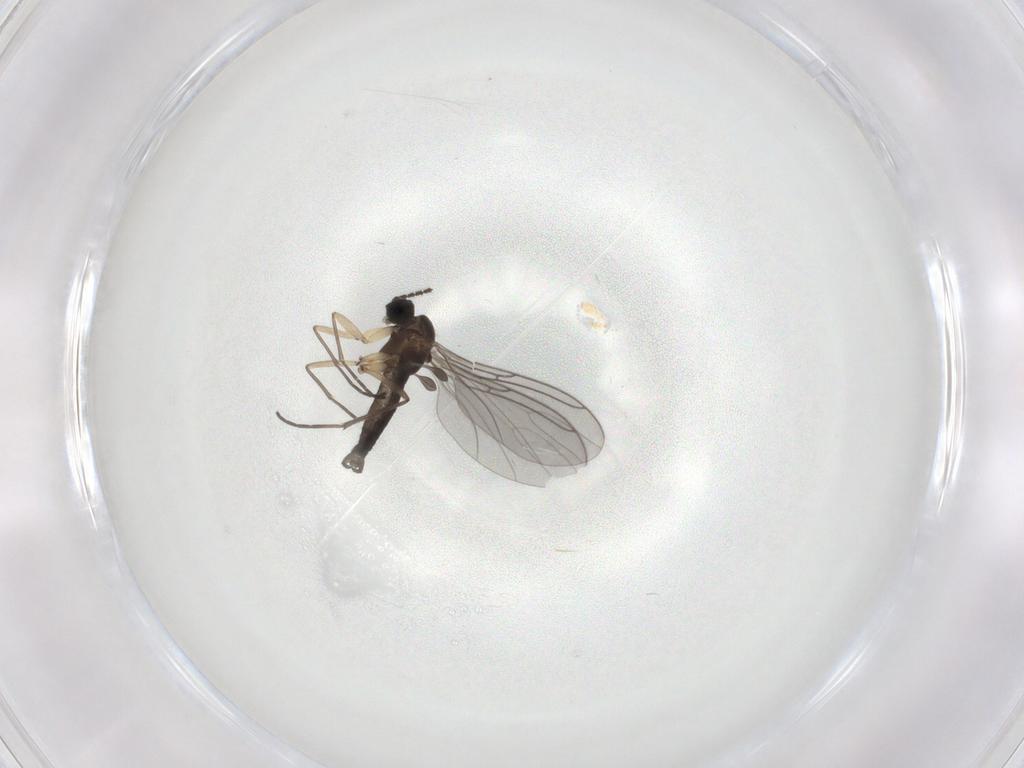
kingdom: Animalia
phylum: Arthropoda
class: Insecta
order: Diptera
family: Sciaridae
